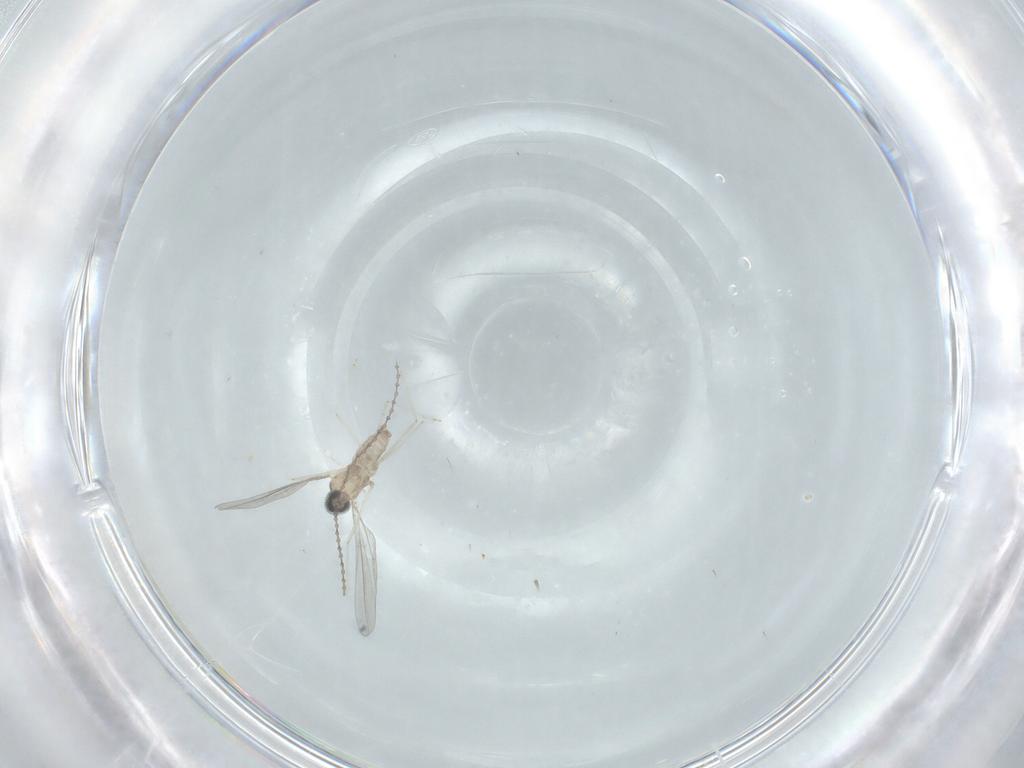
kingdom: Animalia
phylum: Arthropoda
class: Insecta
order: Diptera
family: Cecidomyiidae
